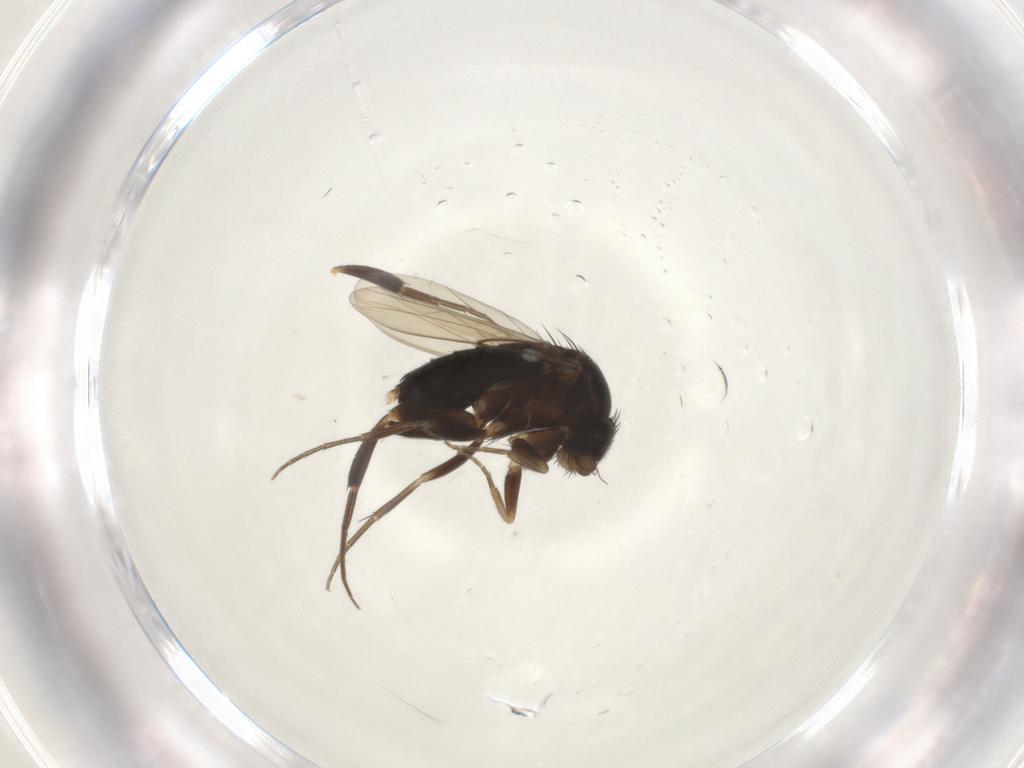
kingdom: Animalia
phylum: Arthropoda
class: Insecta
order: Diptera
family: Phoridae
